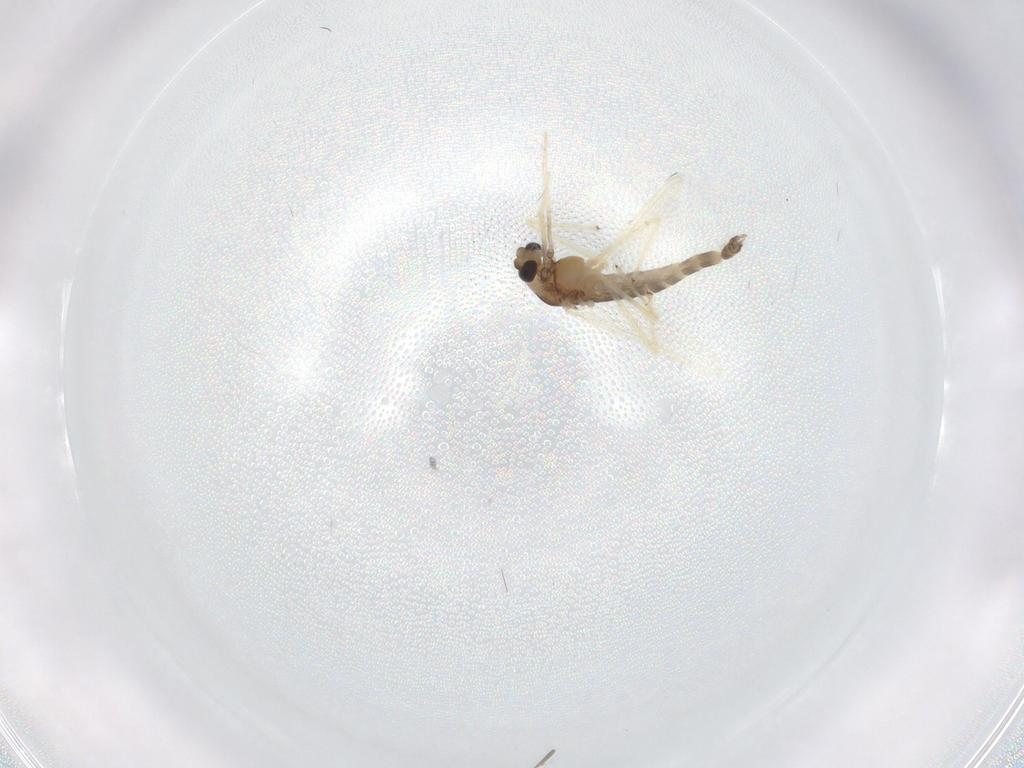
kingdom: Animalia
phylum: Arthropoda
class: Insecta
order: Diptera
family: Chironomidae
